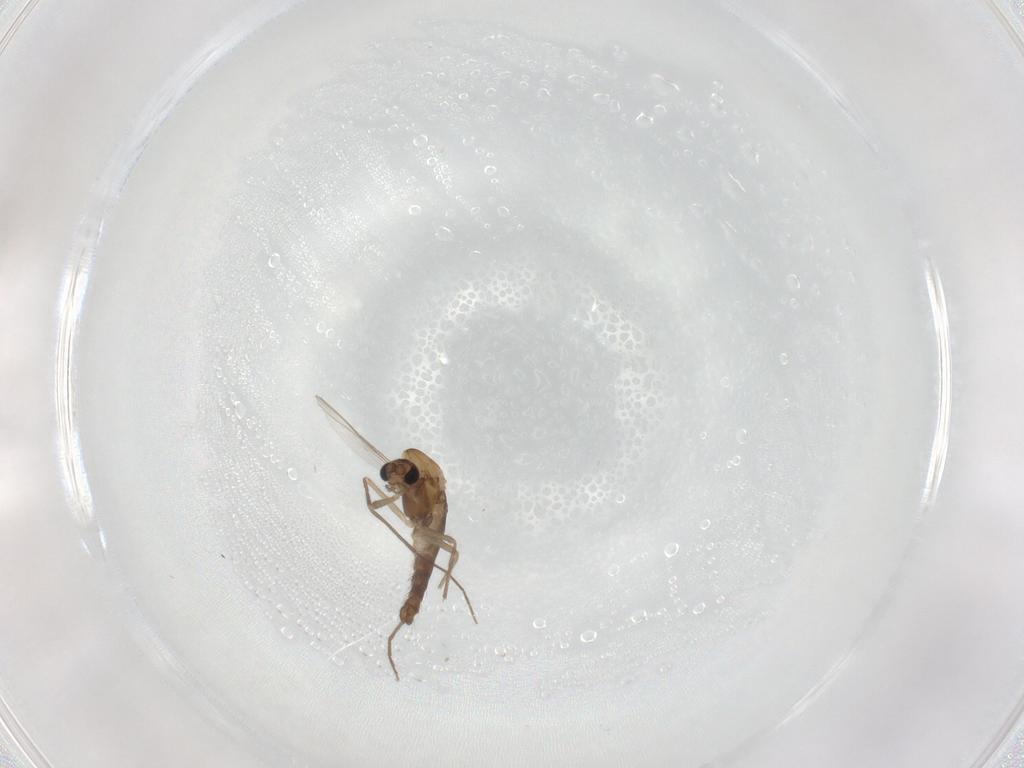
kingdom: Animalia
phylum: Arthropoda
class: Insecta
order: Diptera
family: Chironomidae
